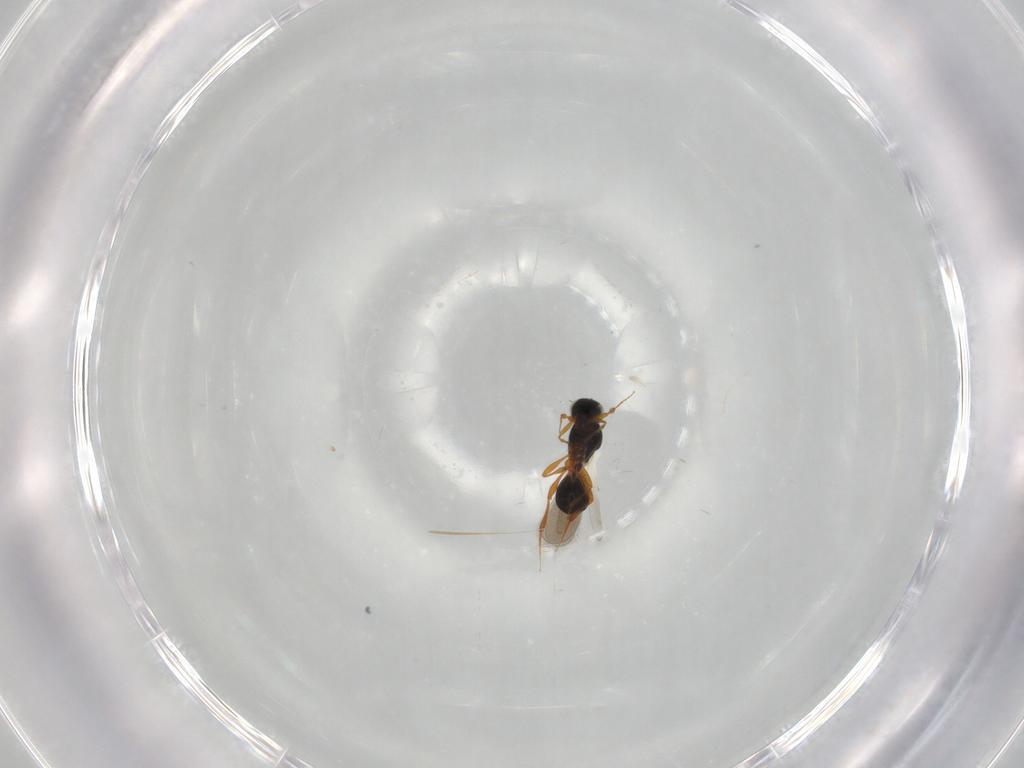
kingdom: Animalia
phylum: Arthropoda
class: Insecta
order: Hymenoptera
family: Platygastridae
